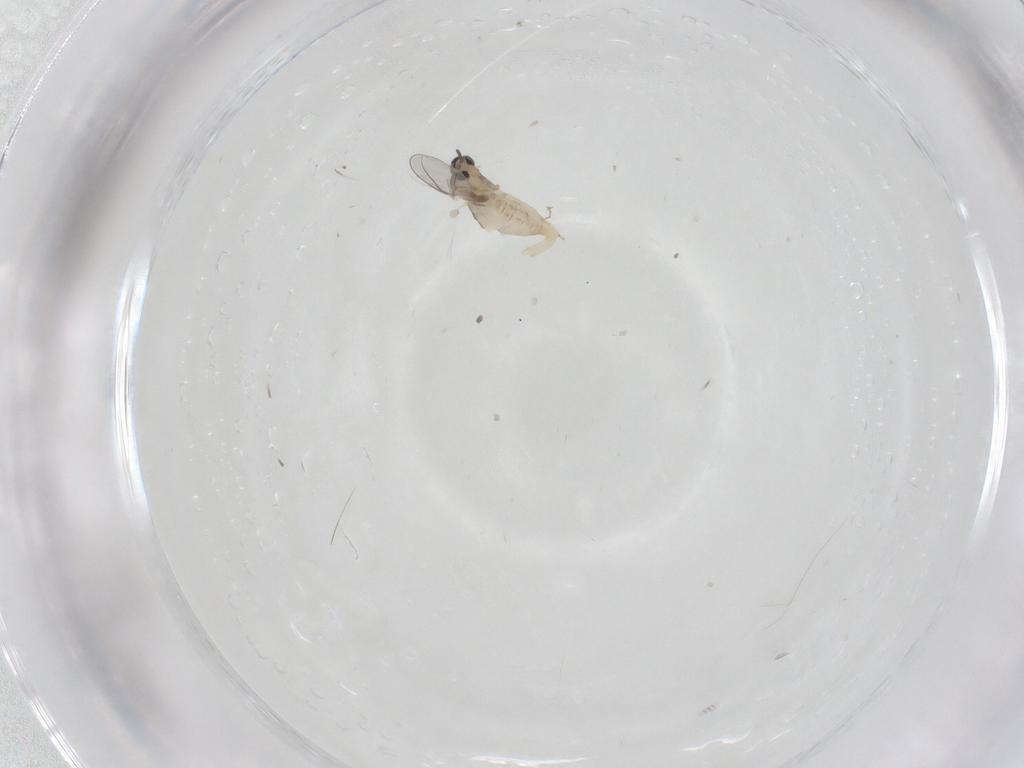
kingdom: Animalia
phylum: Arthropoda
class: Insecta
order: Diptera
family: Cecidomyiidae
